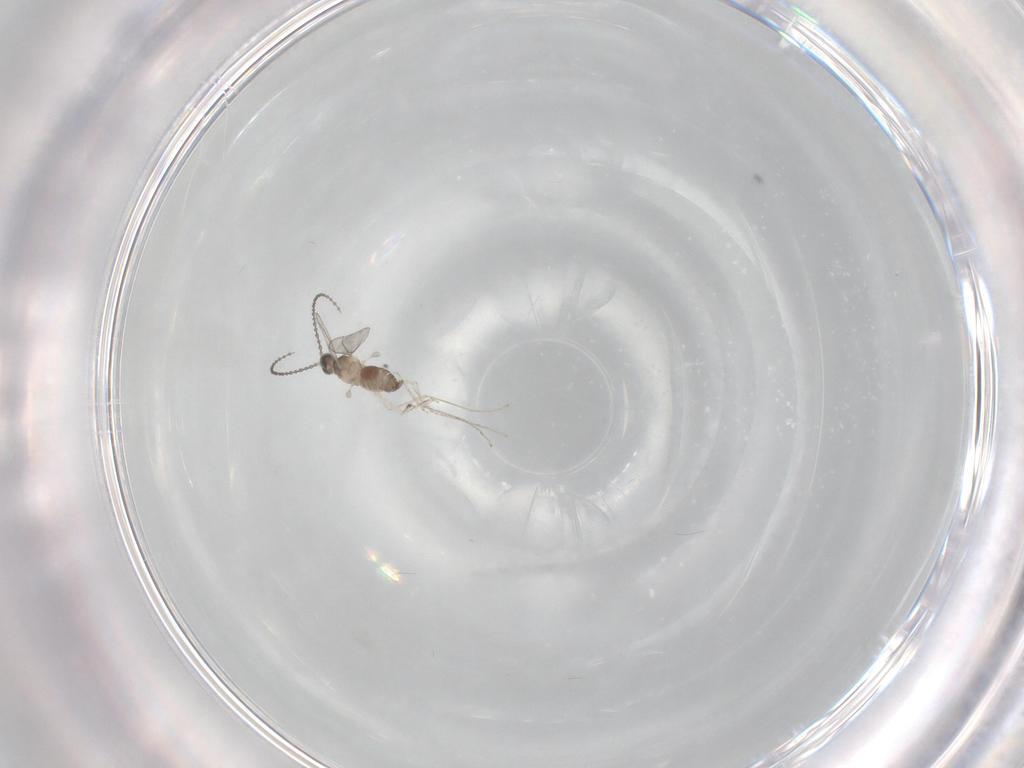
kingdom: Animalia
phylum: Arthropoda
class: Insecta
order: Diptera
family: Cecidomyiidae
